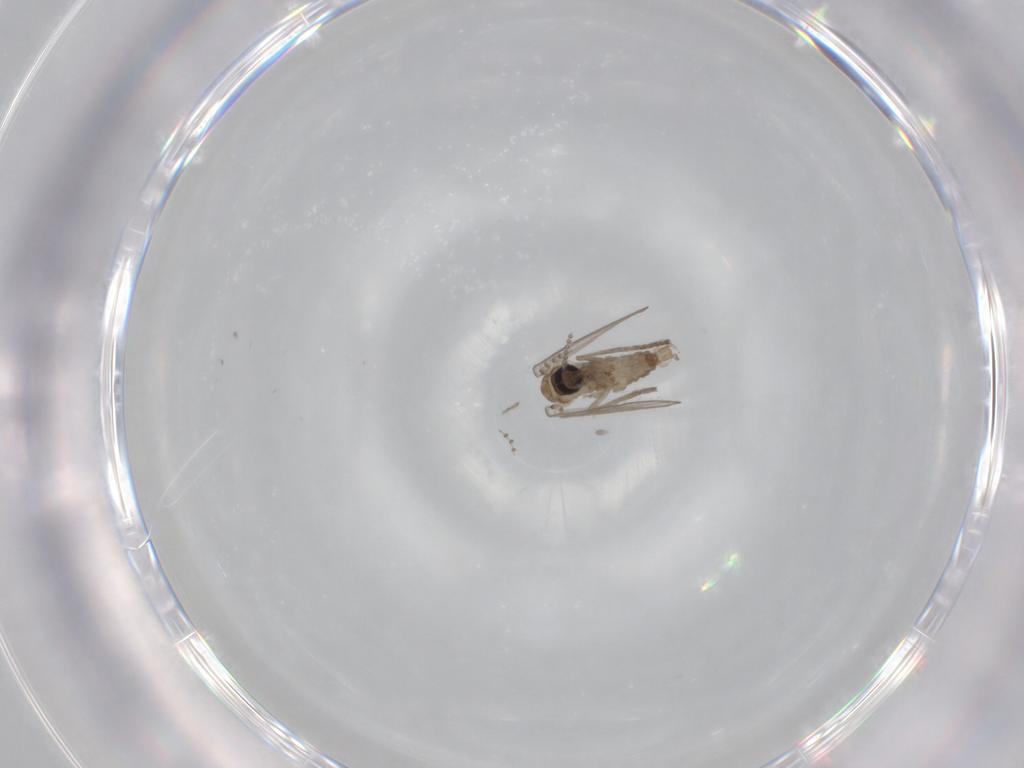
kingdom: Animalia
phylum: Arthropoda
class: Insecta
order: Diptera
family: Psychodidae
